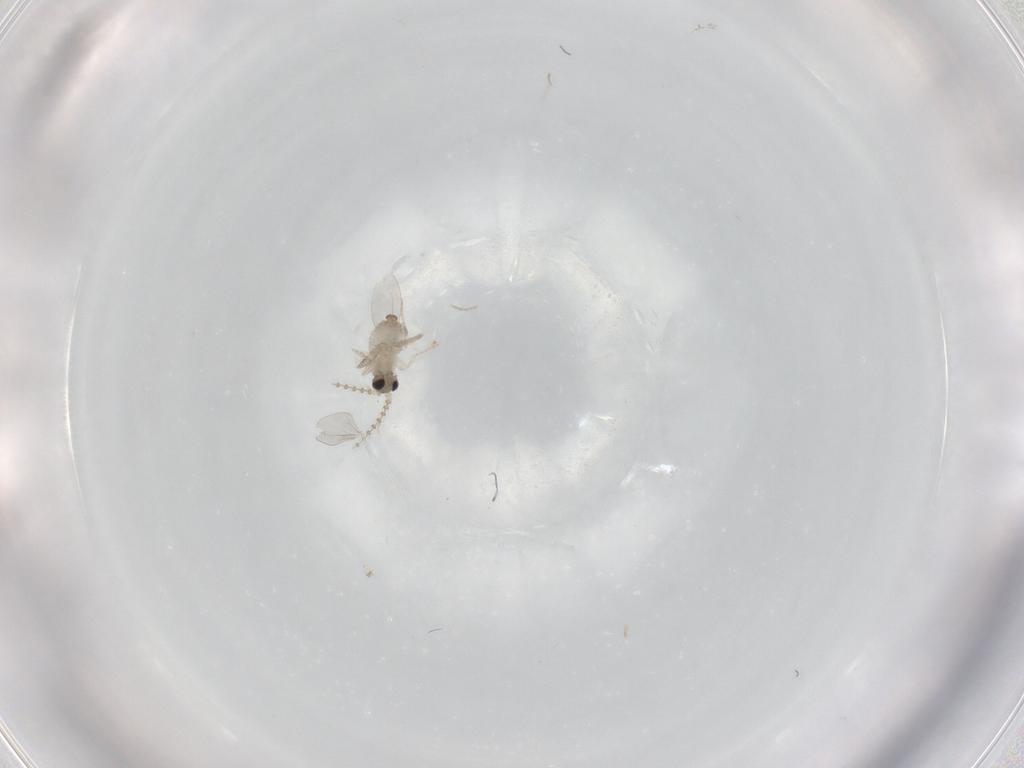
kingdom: Animalia
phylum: Arthropoda
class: Insecta
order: Diptera
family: Cecidomyiidae
